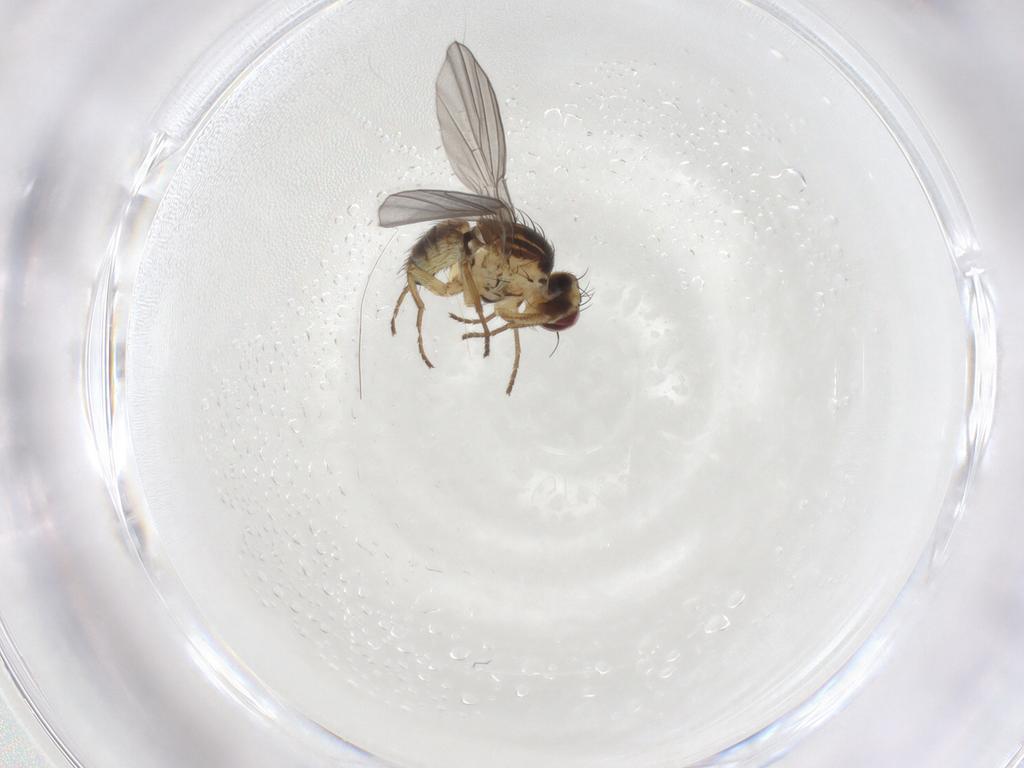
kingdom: Animalia
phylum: Arthropoda
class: Insecta
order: Diptera
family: Agromyzidae
